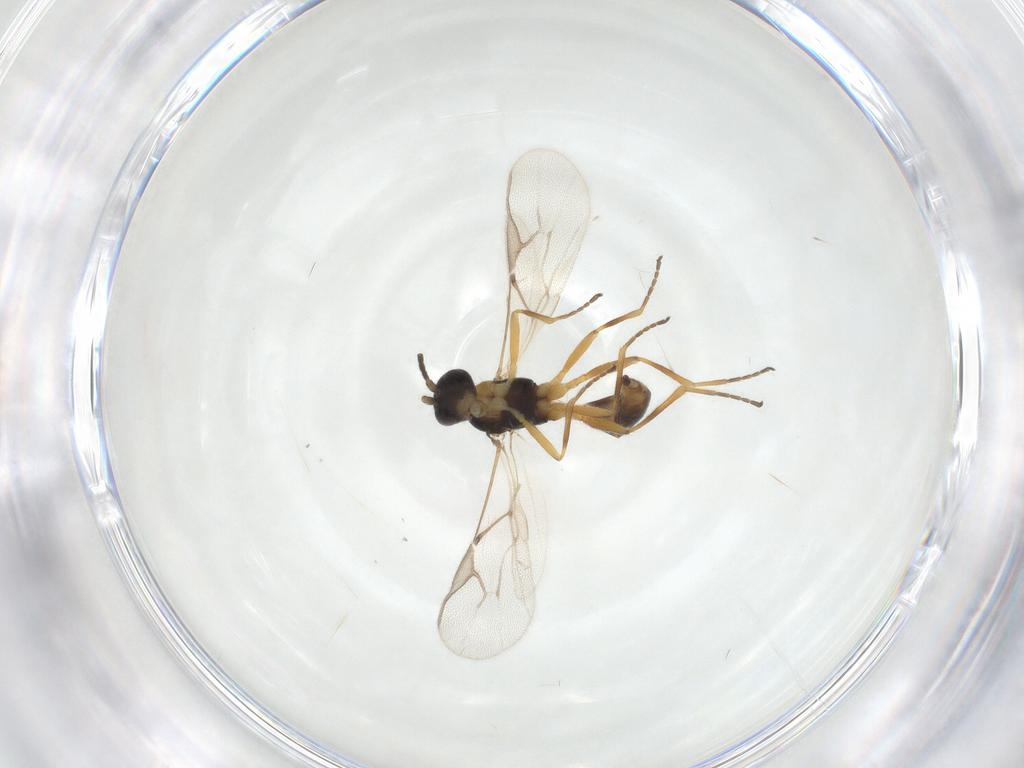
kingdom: Animalia
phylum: Arthropoda
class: Insecta
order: Hymenoptera
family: Braconidae
